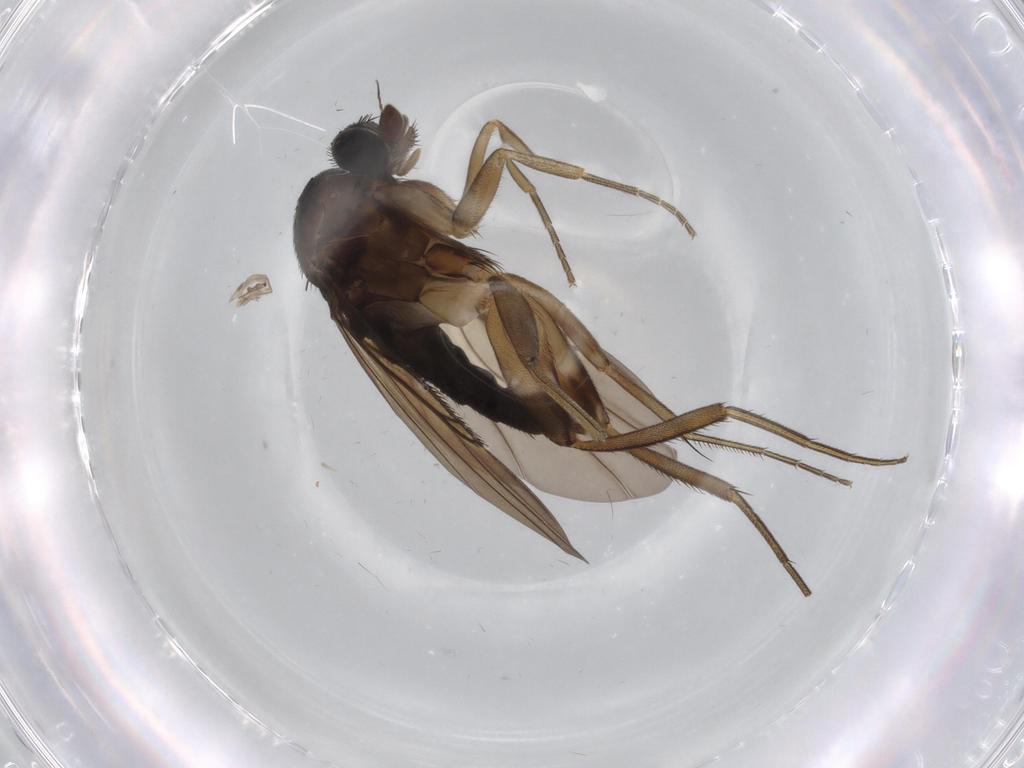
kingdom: Animalia
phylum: Arthropoda
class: Insecta
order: Diptera
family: Phoridae
